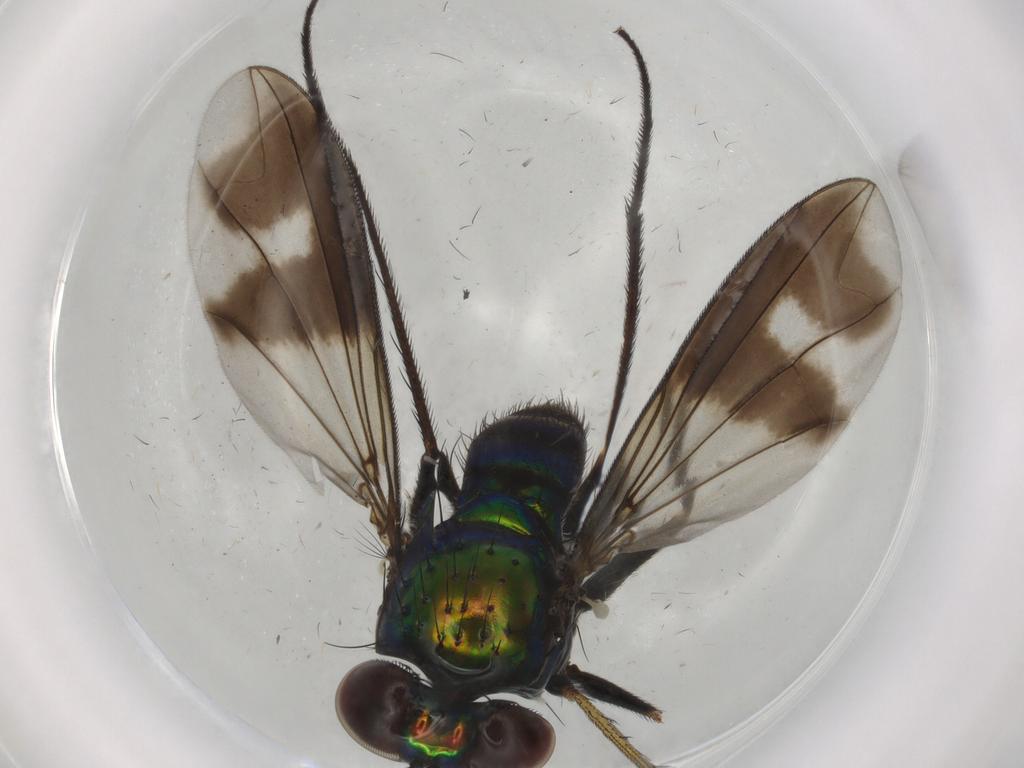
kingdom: Animalia
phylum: Arthropoda
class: Insecta
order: Diptera
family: Dolichopodidae
